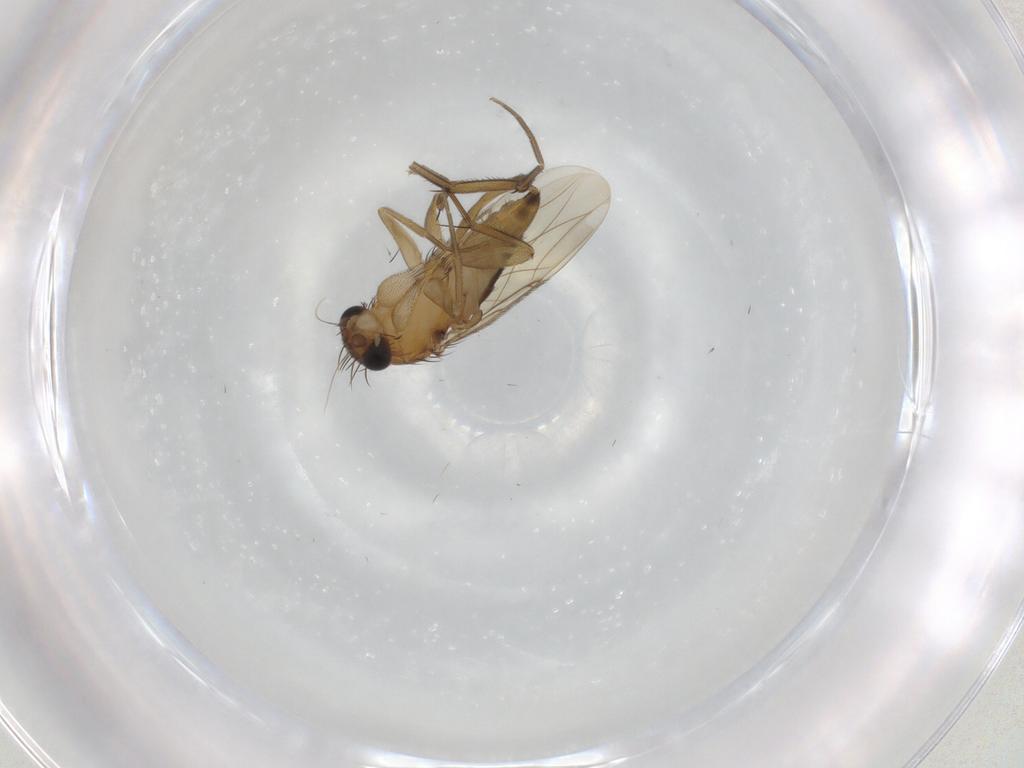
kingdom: Animalia
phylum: Arthropoda
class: Insecta
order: Diptera
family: Phoridae
